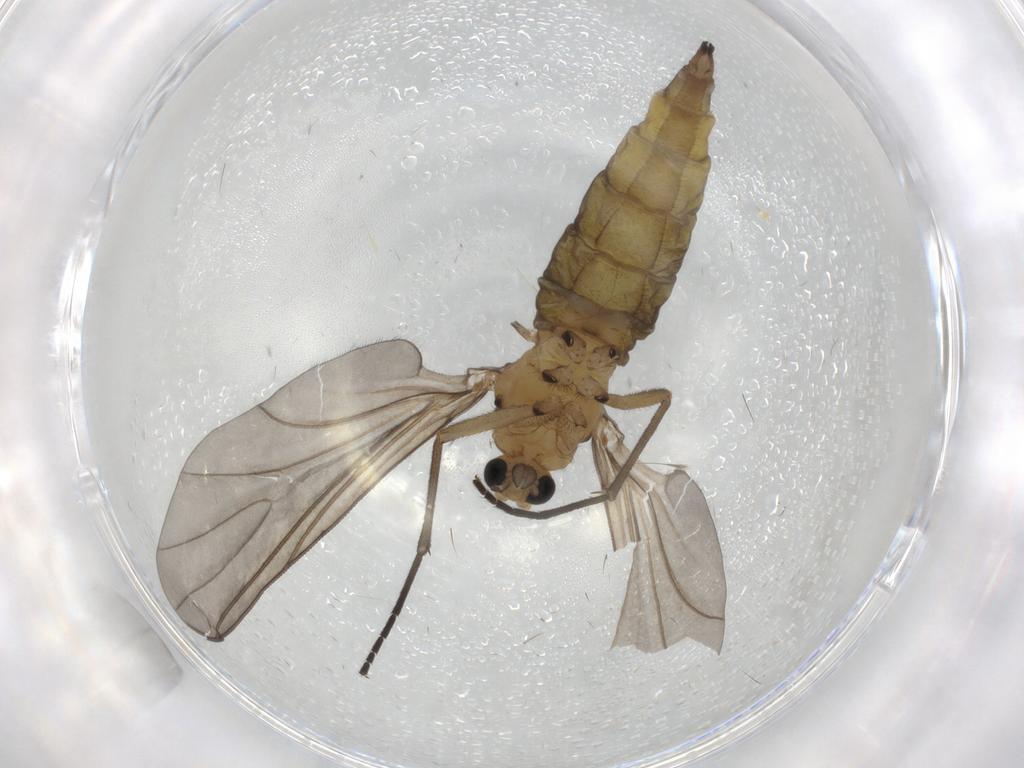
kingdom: Animalia
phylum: Arthropoda
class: Insecta
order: Diptera
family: Sciaridae
